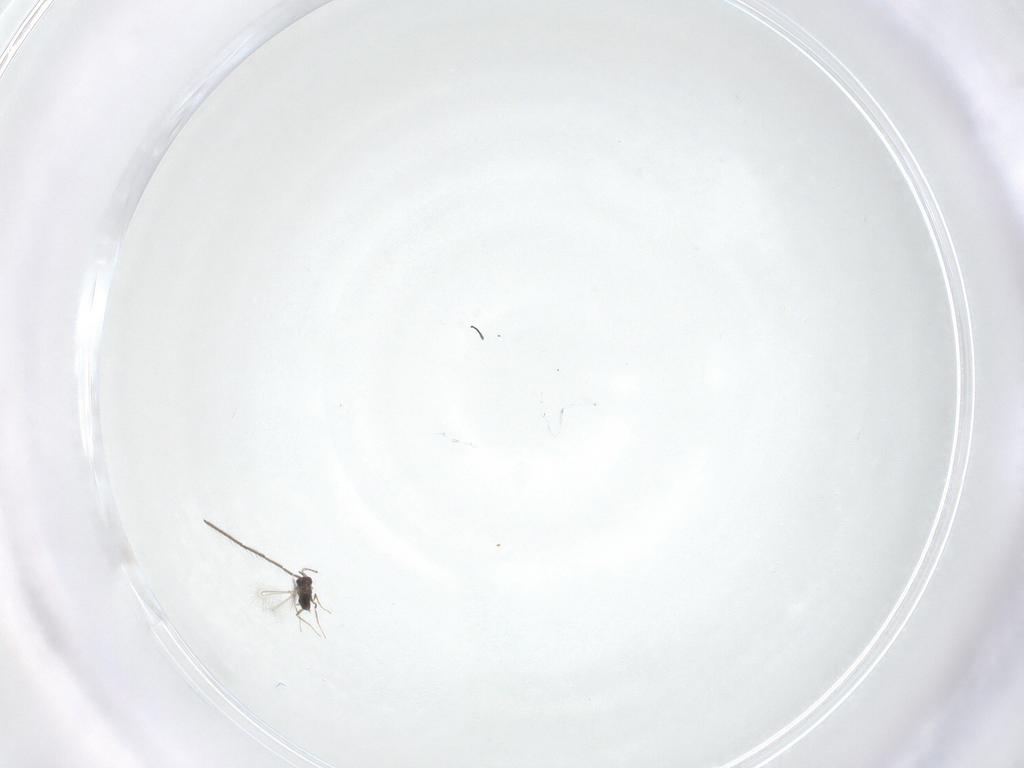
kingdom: Animalia
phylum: Arthropoda
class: Insecta
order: Hymenoptera
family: Mymaridae
